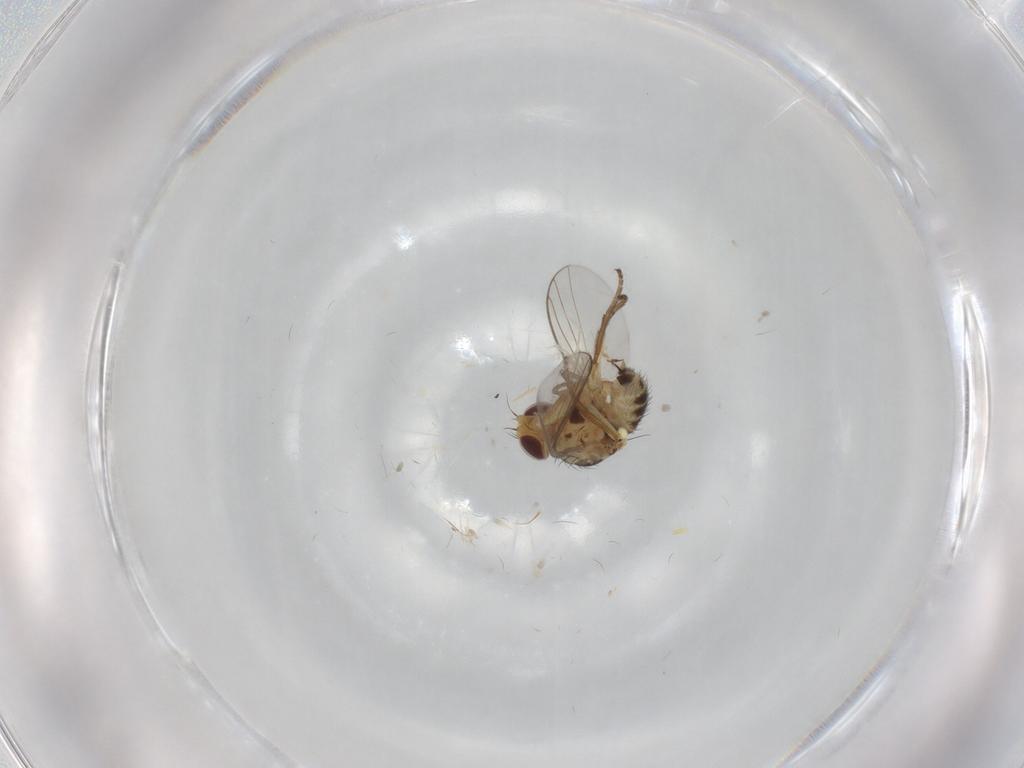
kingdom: Animalia
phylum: Arthropoda
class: Insecta
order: Diptera
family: Agromyzidae
